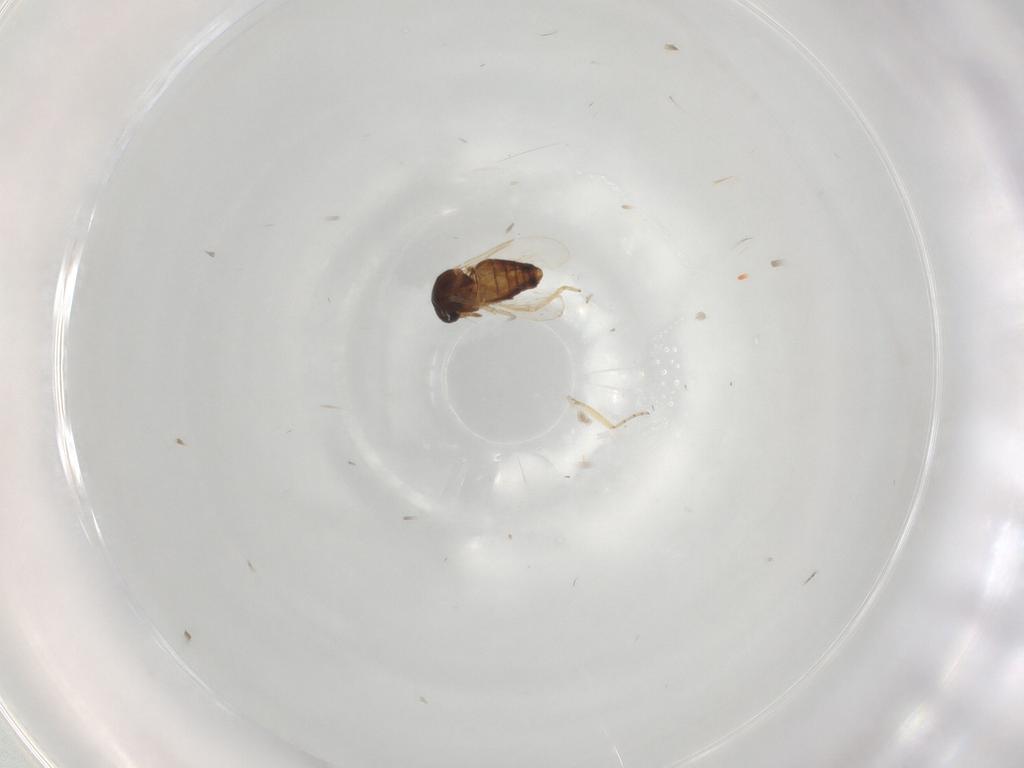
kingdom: Animalia
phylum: Arthropoda
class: Insecta
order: Diptera
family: Ceratopogonidae
